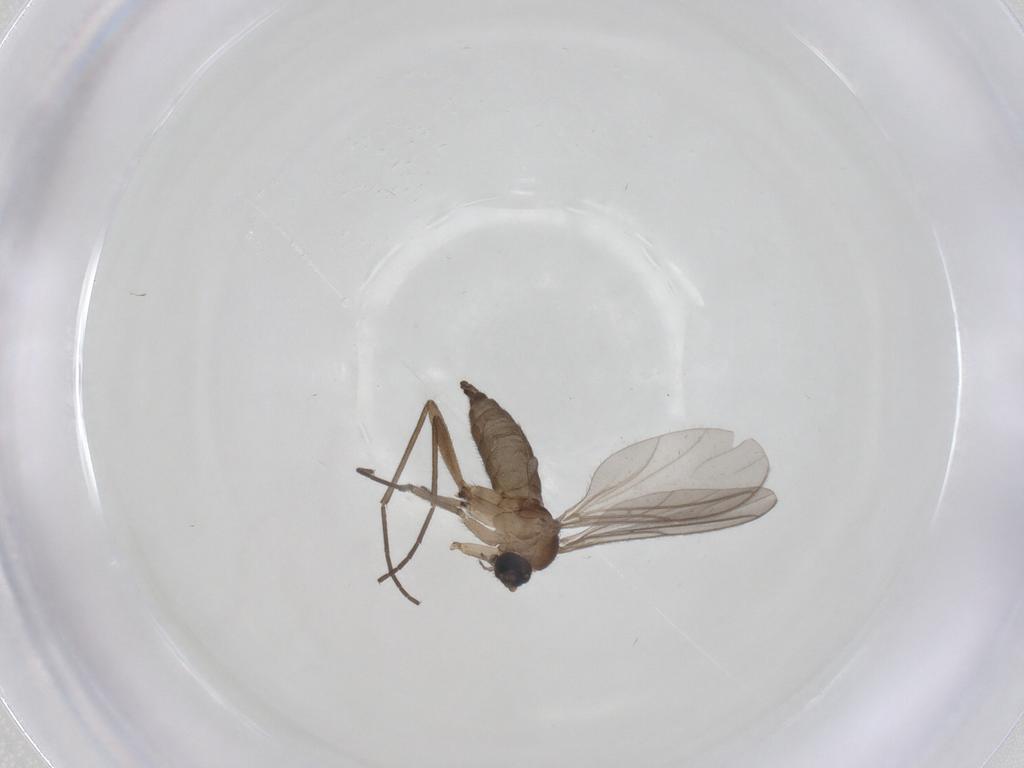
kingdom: Animalia
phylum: Arthropoda
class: Insecta
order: Diptera
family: Sciaridae
